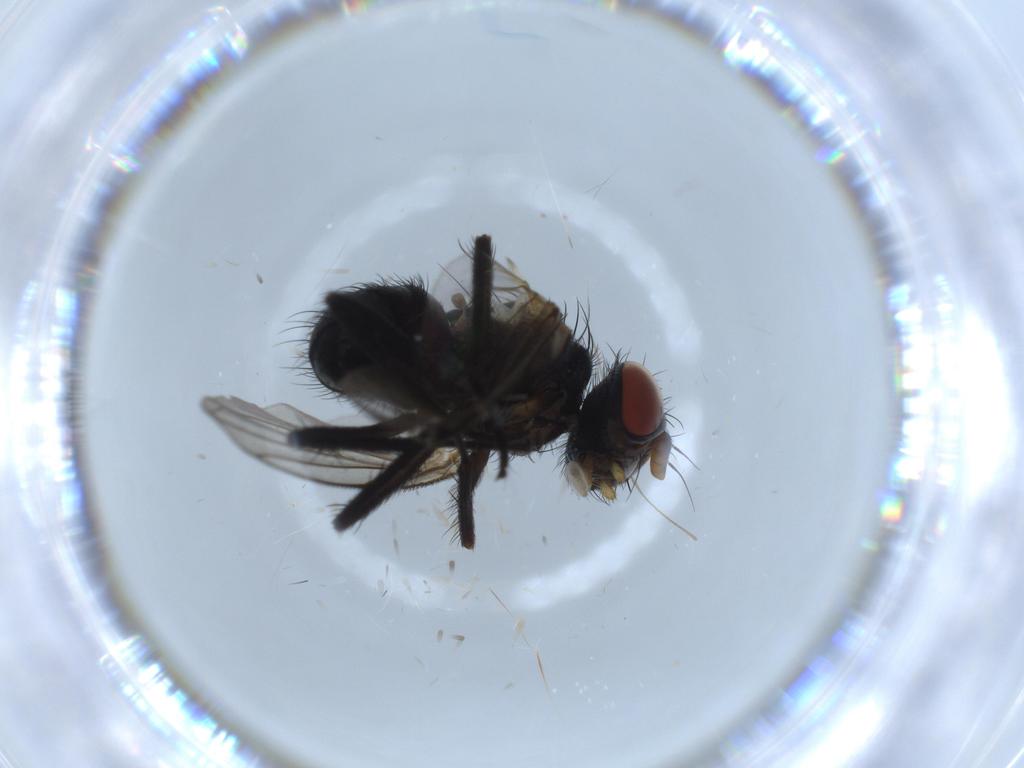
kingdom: Animalia
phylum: Arthropoda
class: Insecta
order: Diptera
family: Tachinidae
